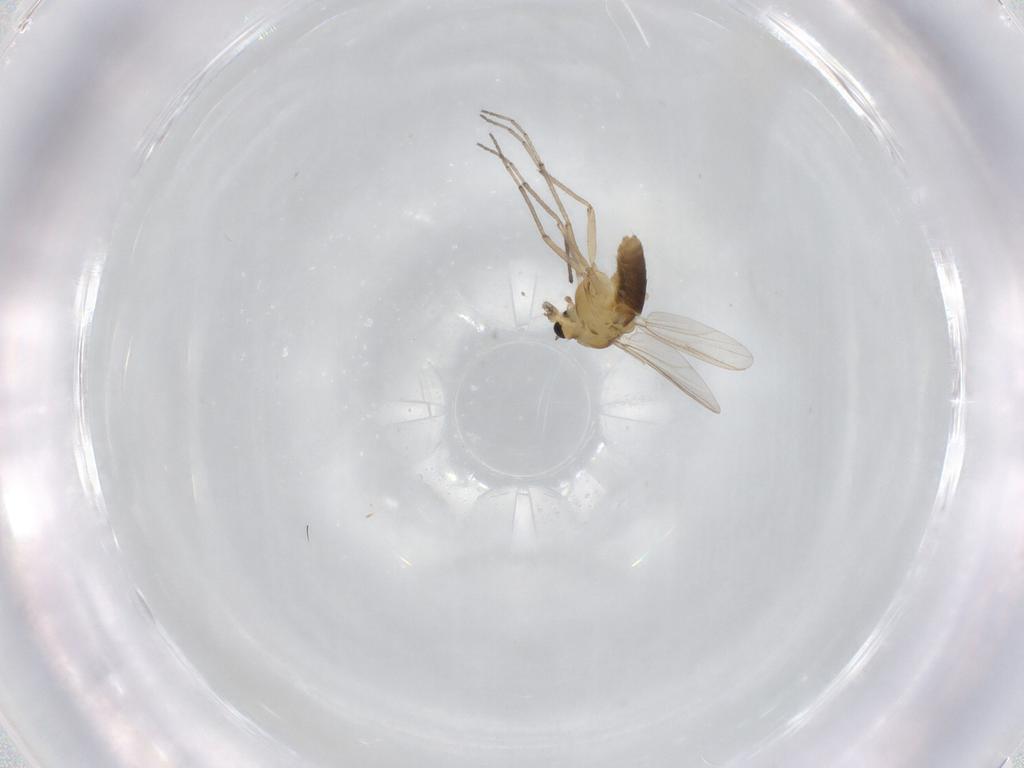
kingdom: Animalia
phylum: Arthropoda
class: Insecta
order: Diptera
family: Chironomidae
